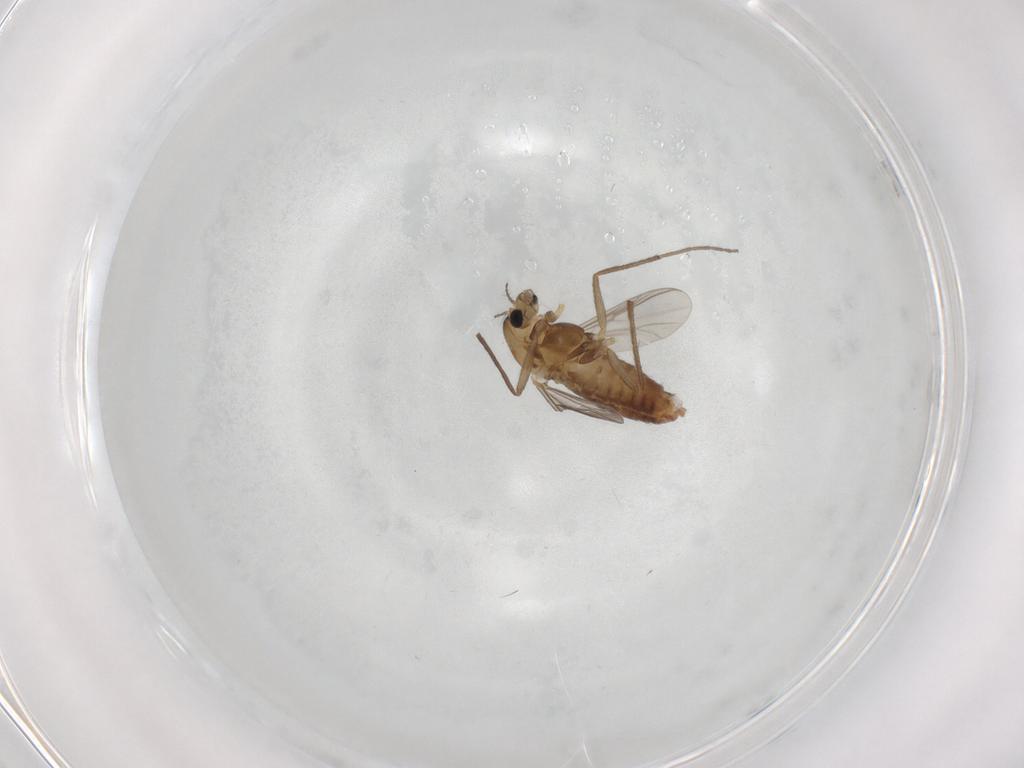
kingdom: Animalia
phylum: Arthropoda
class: Insecta
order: Diptera
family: Chironomidae
